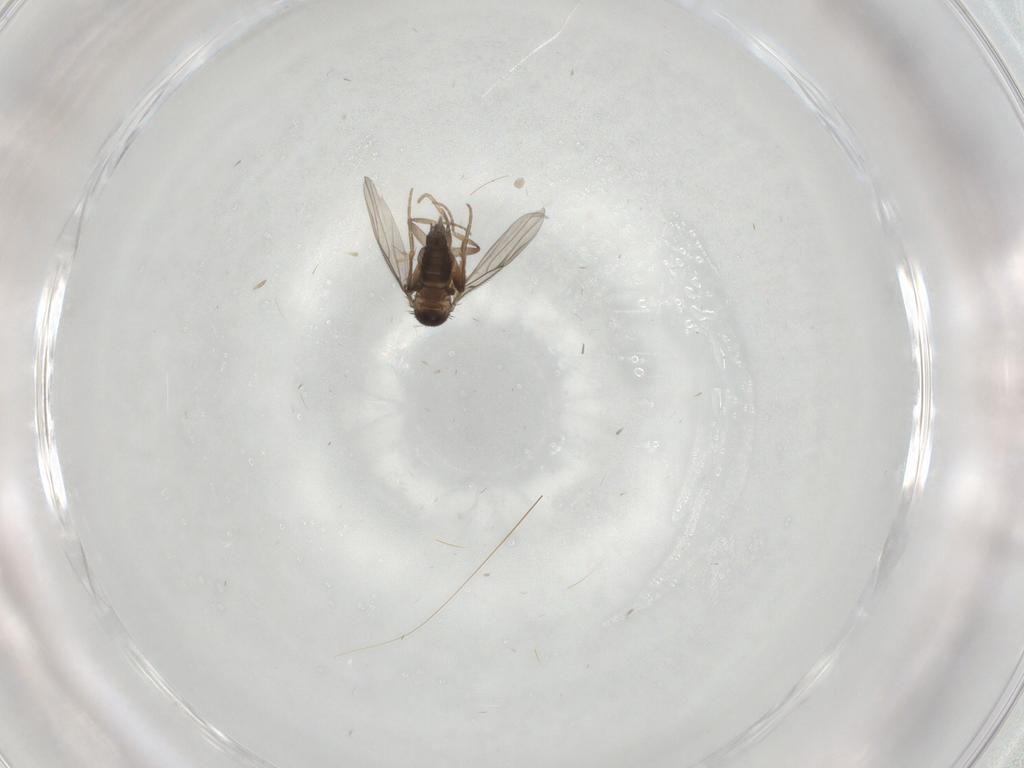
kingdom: Animalia
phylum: Arthropoda
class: Insecta
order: Diptera
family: Phoridae
